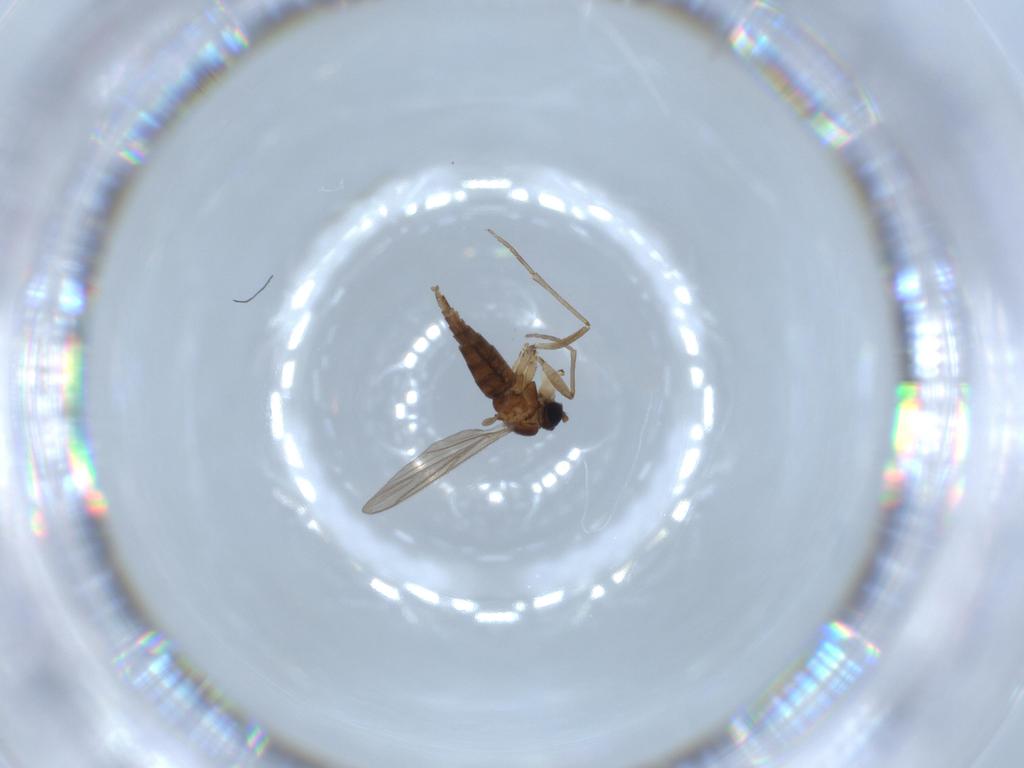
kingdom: Animalia
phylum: Arthropoda
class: Insecta
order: Diptera
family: Sciaridae
